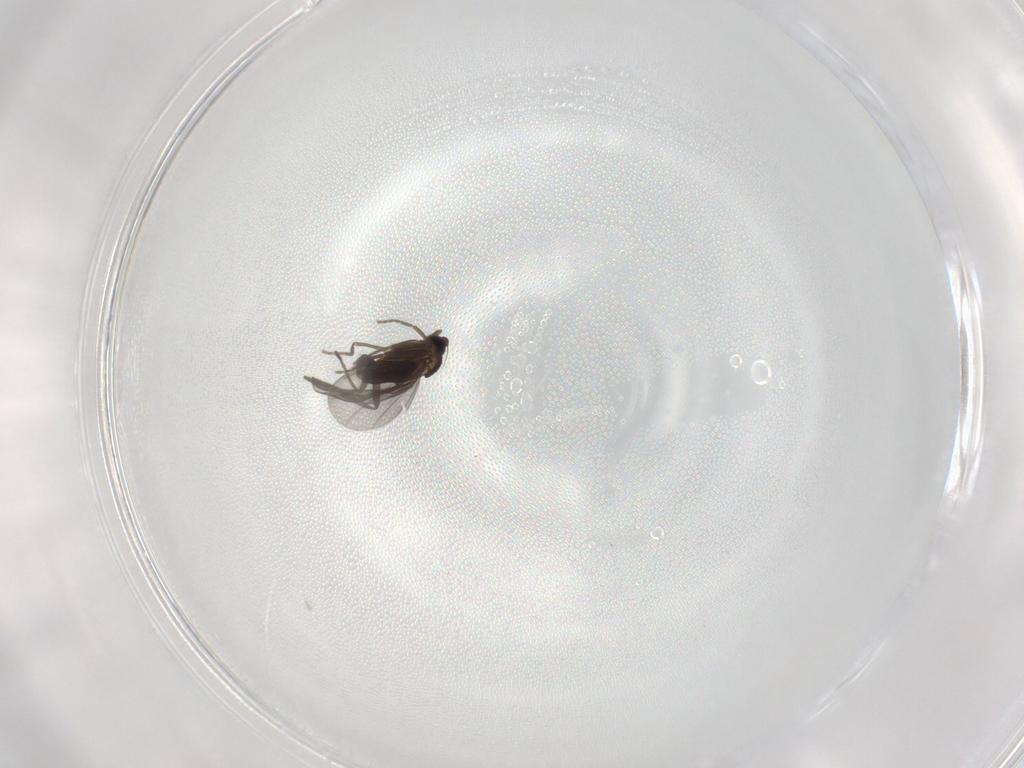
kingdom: Animalia
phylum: Arthropoda
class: Insecta
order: Diptera
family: Phoridae
